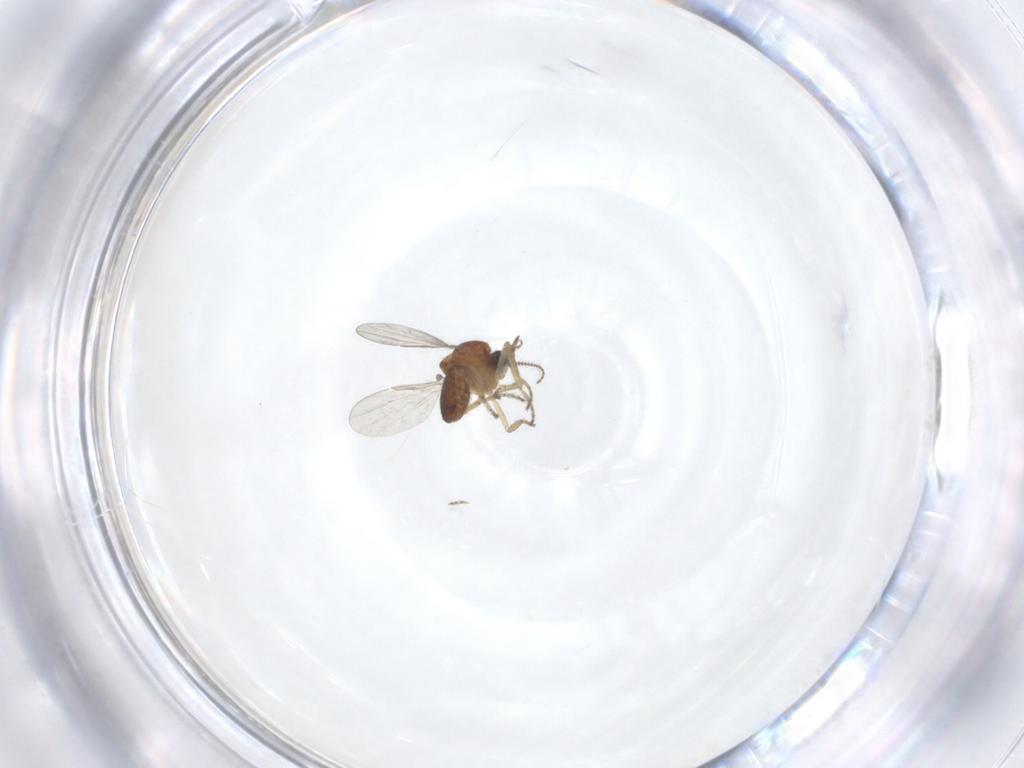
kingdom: Animalia
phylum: Arthropoda
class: Insecta
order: Diptera
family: Ceratopogonidae
